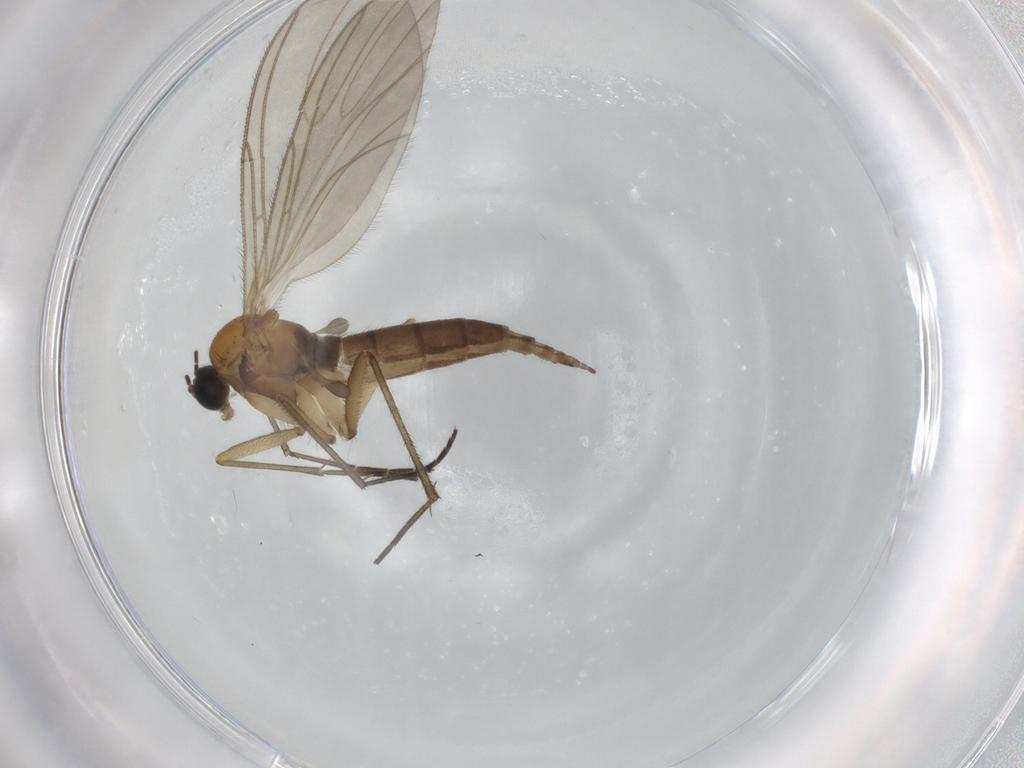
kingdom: Animalia
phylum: Arthropoda
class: Insecta
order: Diptera
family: Sciaridae
